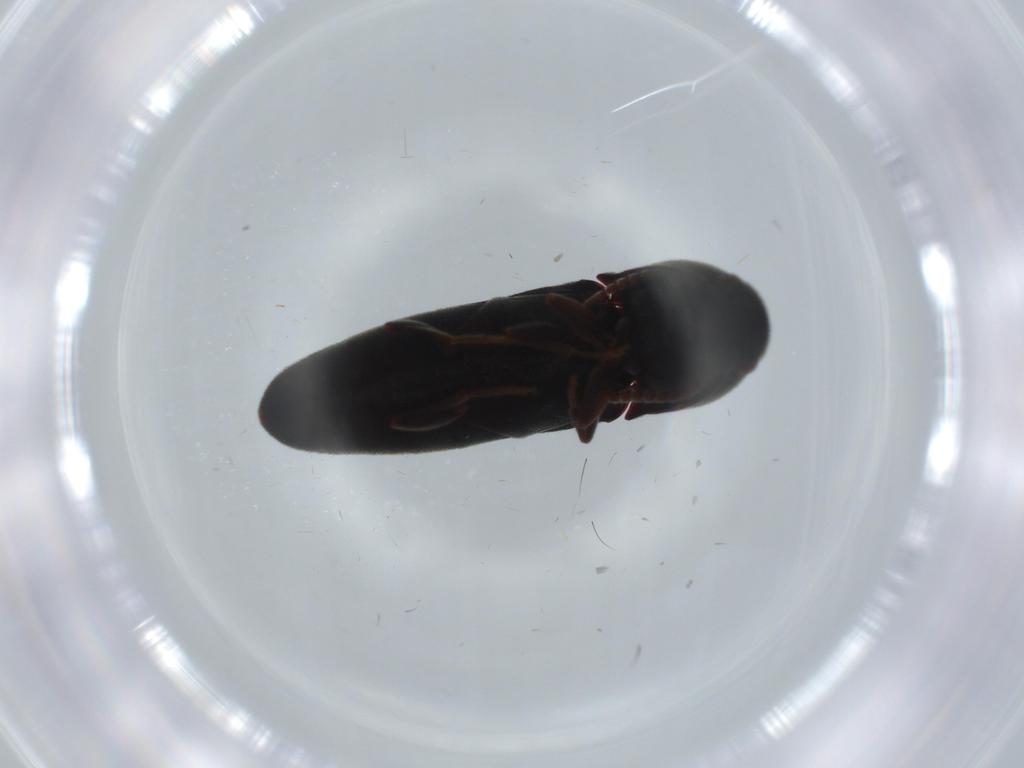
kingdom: Animalia
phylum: Arthropoda
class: Insecta
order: Coleoptera
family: Eucnemidae
